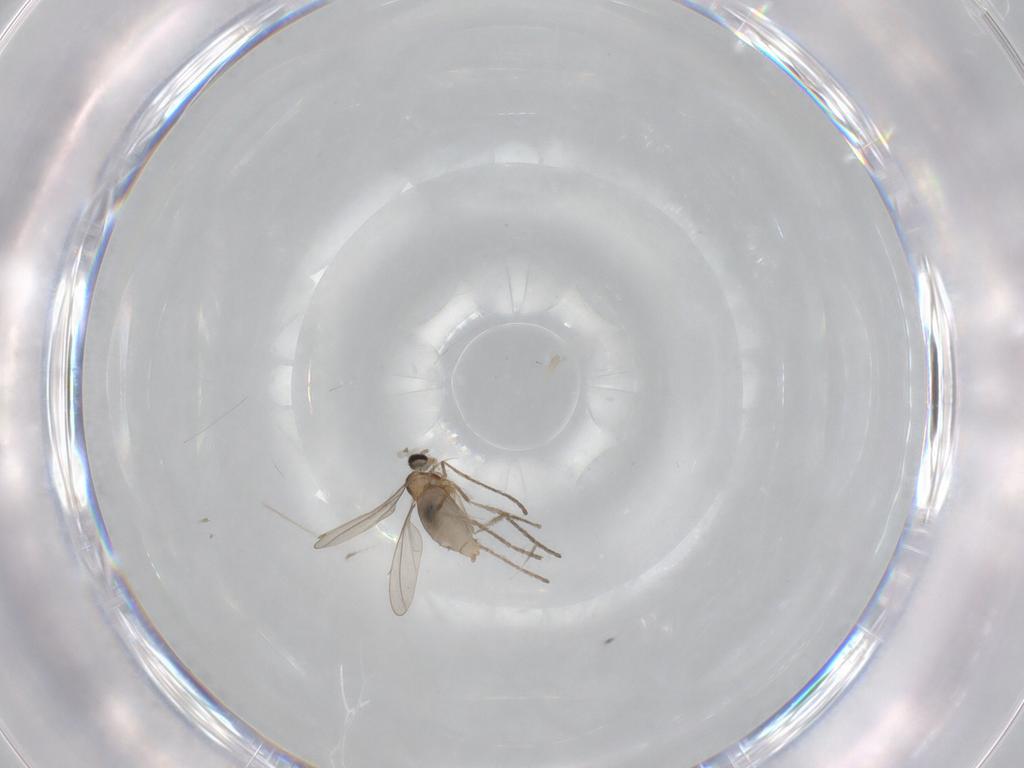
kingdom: Animalia
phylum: Arthropoda
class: Insecta
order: Diptera
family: Cecidomyiidae
